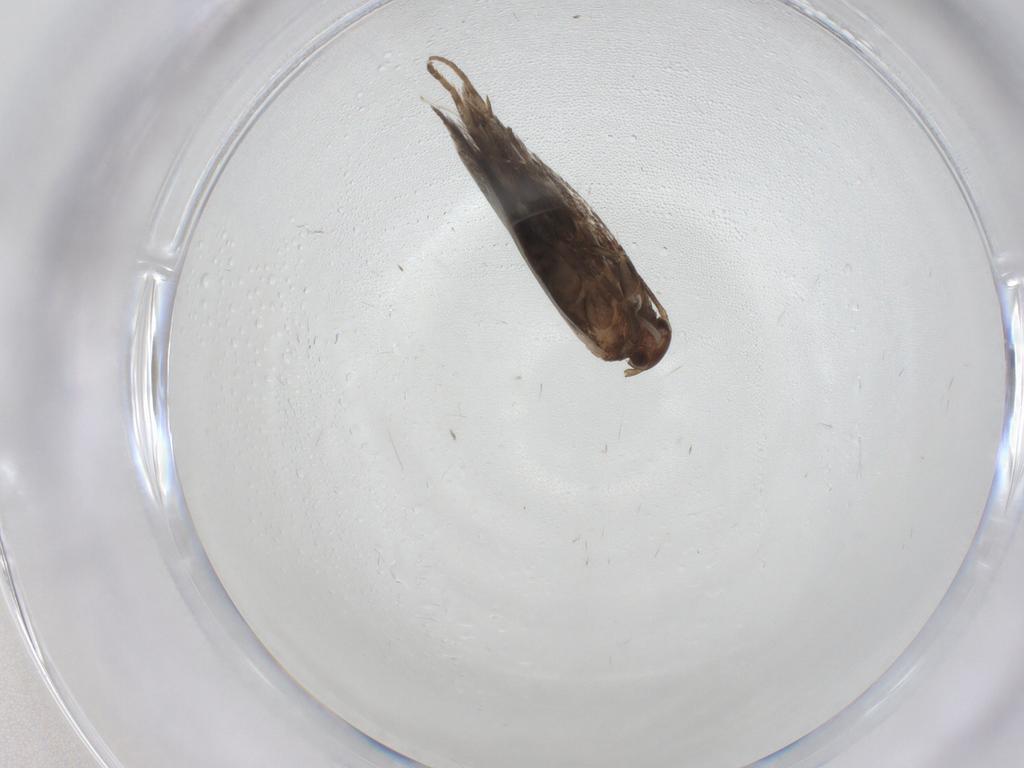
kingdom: Animalia
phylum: Arthropoda
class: Insecta
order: Lepidoptera
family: Elachistidae
